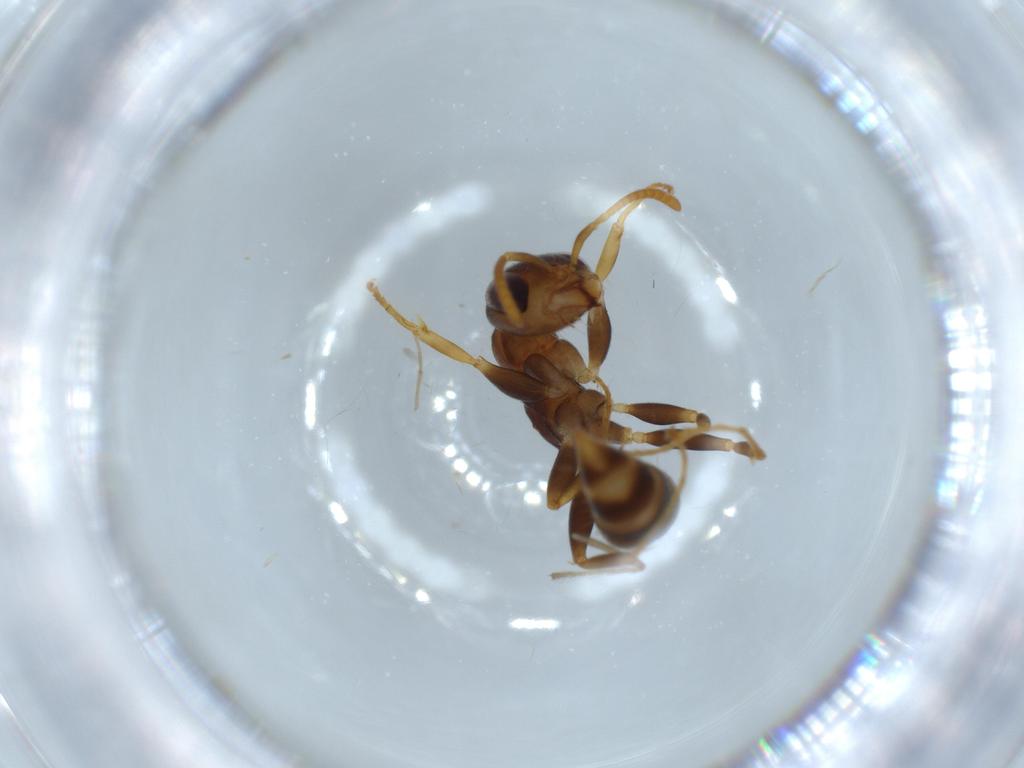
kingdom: Animalia
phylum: Arthropoda
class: Insecta
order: Hymenoptera
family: Formicidae
